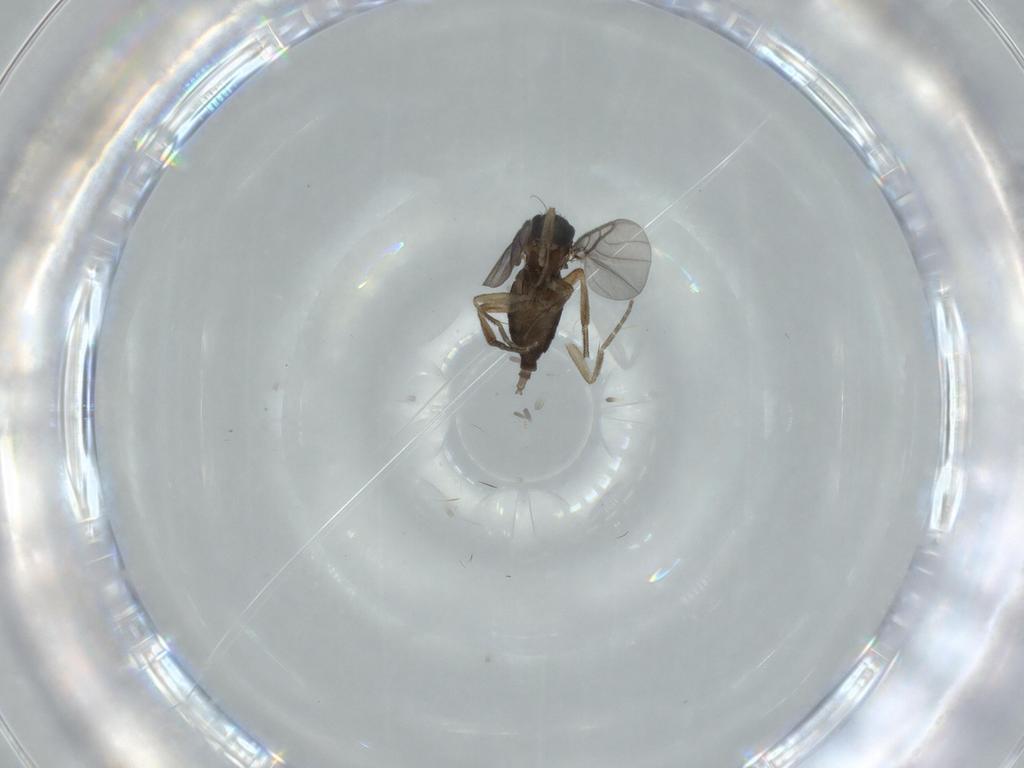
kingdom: Animalia
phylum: Arthropoda
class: Insecta
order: Diptera
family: Phoridae
